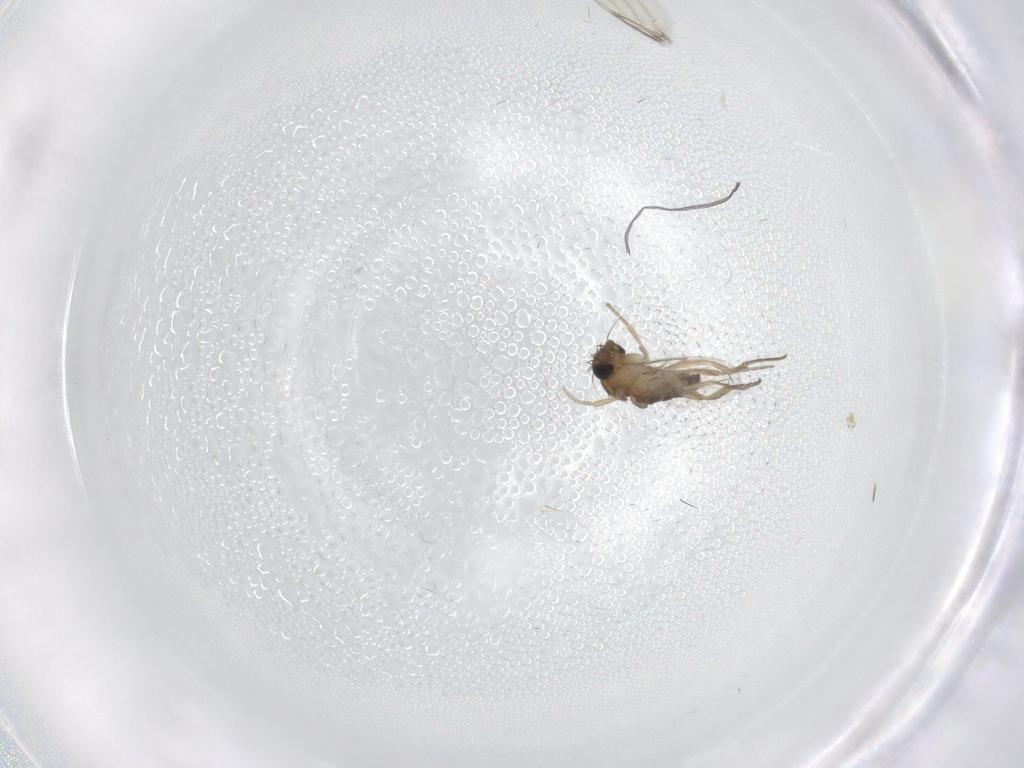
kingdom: Animalia
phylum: Arthropoda
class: Insecta
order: Diptera
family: Phoridae
